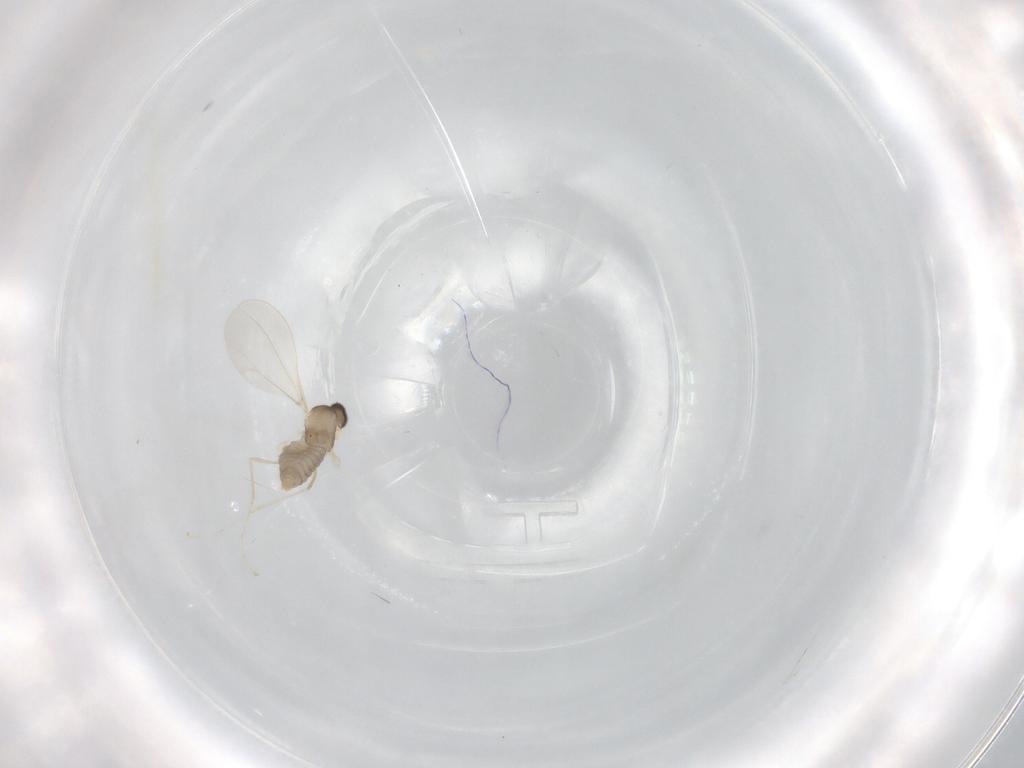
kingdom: Animalia
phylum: Arthropoda
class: Insecta
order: Diptera
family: Cecidomyiidae
